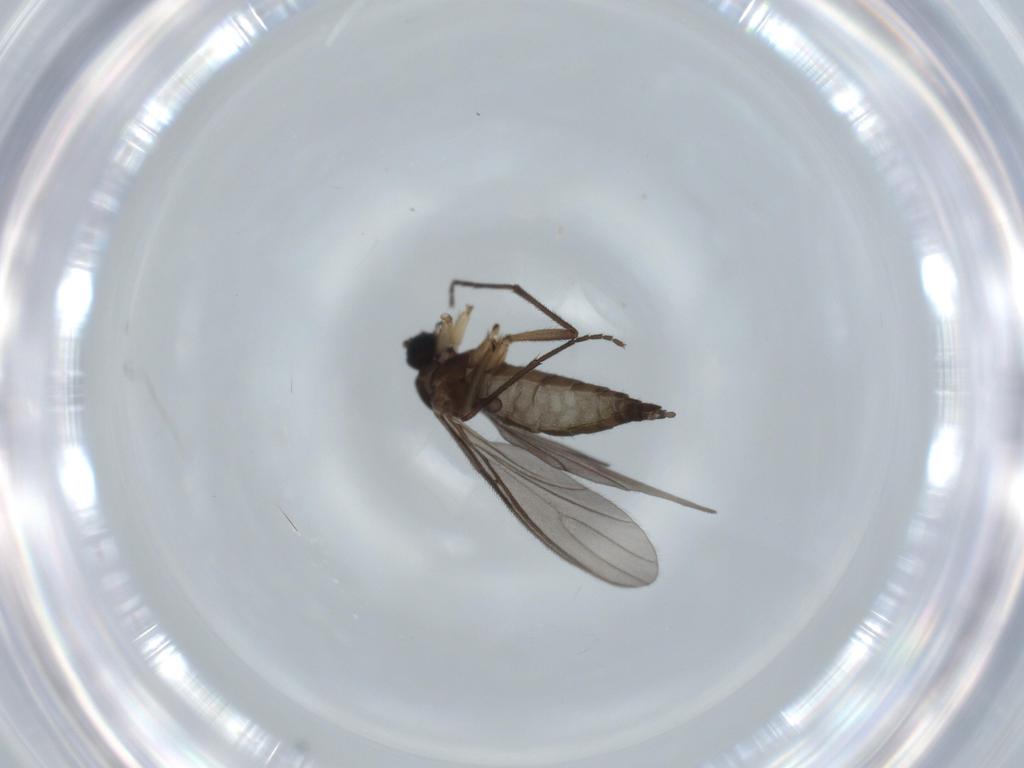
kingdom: Animalia
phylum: Arthropoda
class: Insecta
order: Diptera
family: Sciaridae
